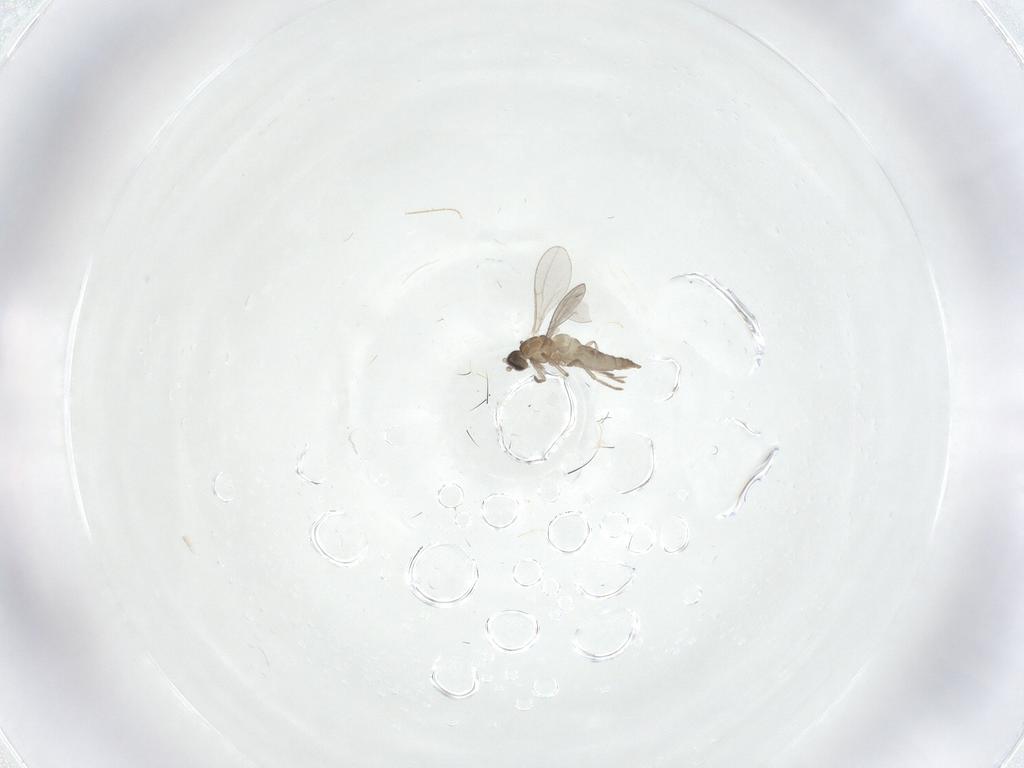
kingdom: Animalia
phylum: Arthropoda
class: Insecta
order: Diptera
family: Cecidomyiidae
